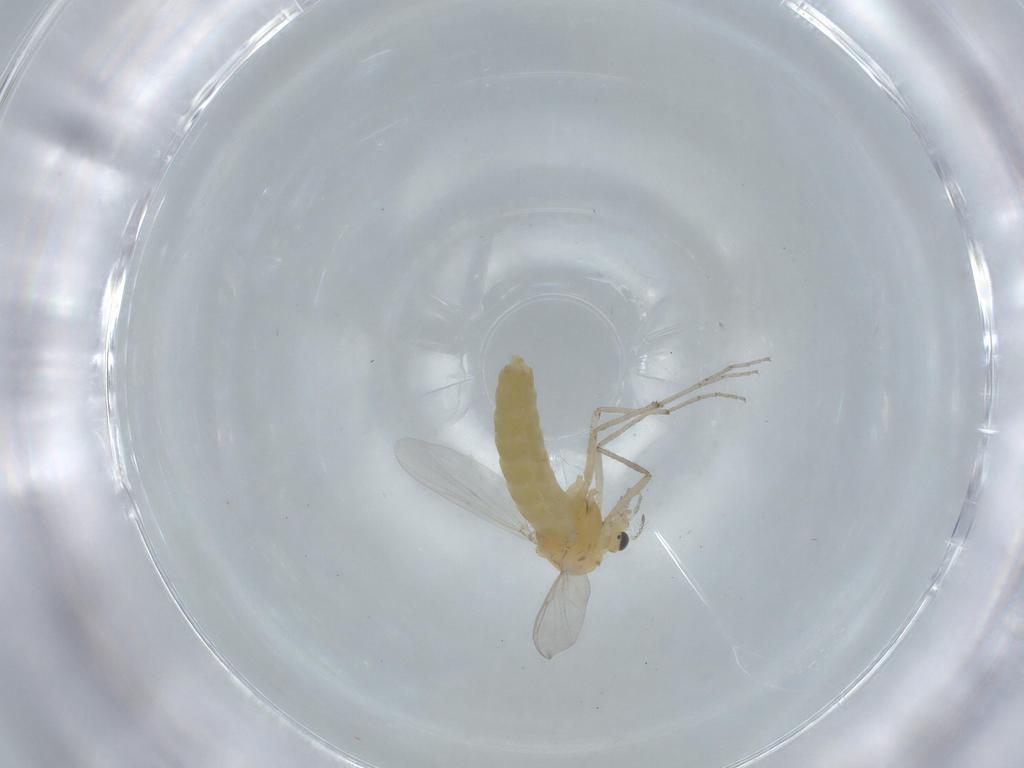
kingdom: Animalia
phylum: Arthropoda
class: Insecta
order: Diptera
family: Chironomidae
